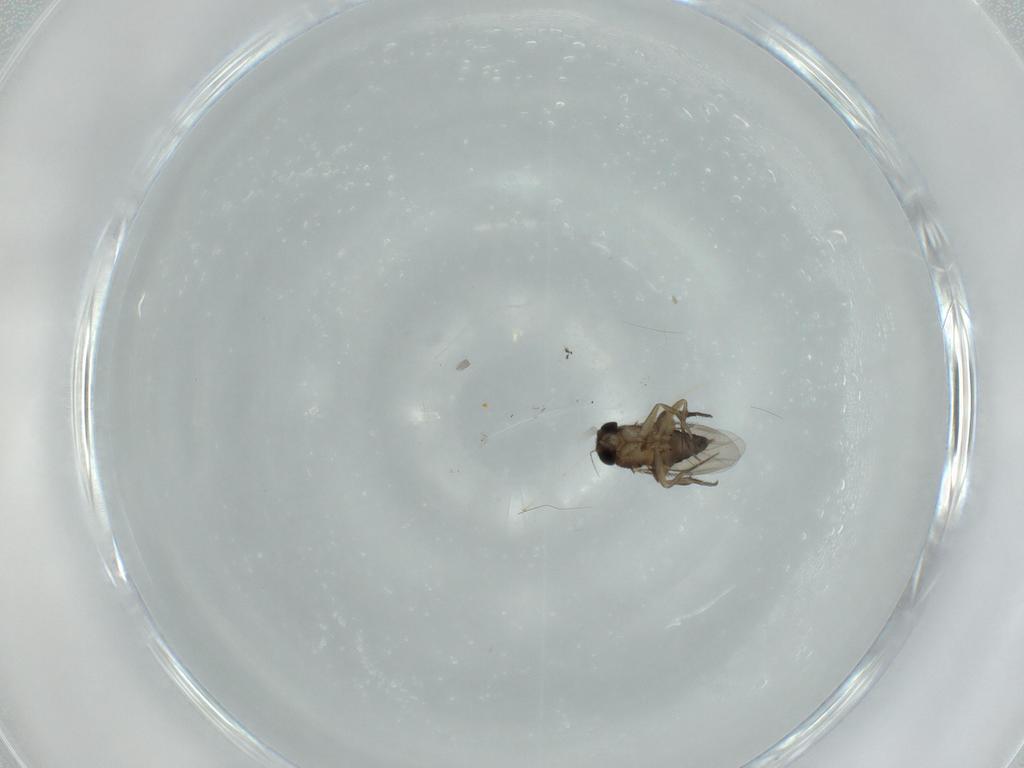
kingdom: Animalia
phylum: Arthropoda
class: Insecta
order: Diptera
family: Phoridae
